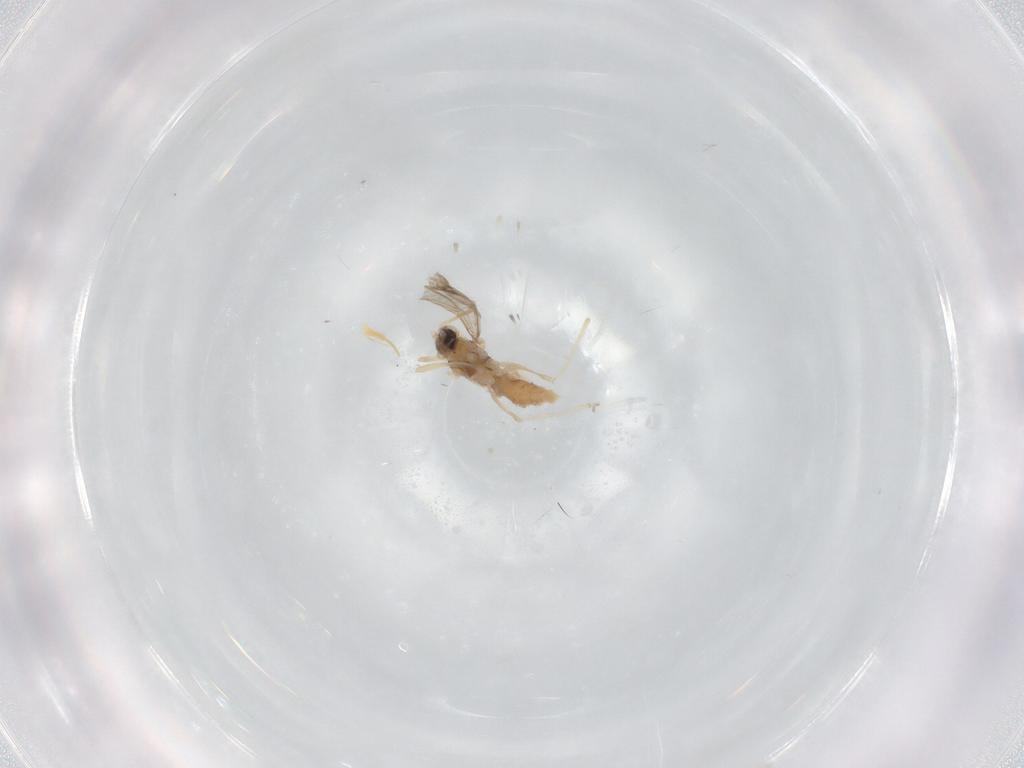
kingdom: Animalia
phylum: Arthropoda
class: Insecta
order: Diptera
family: Cecidomyiidae
